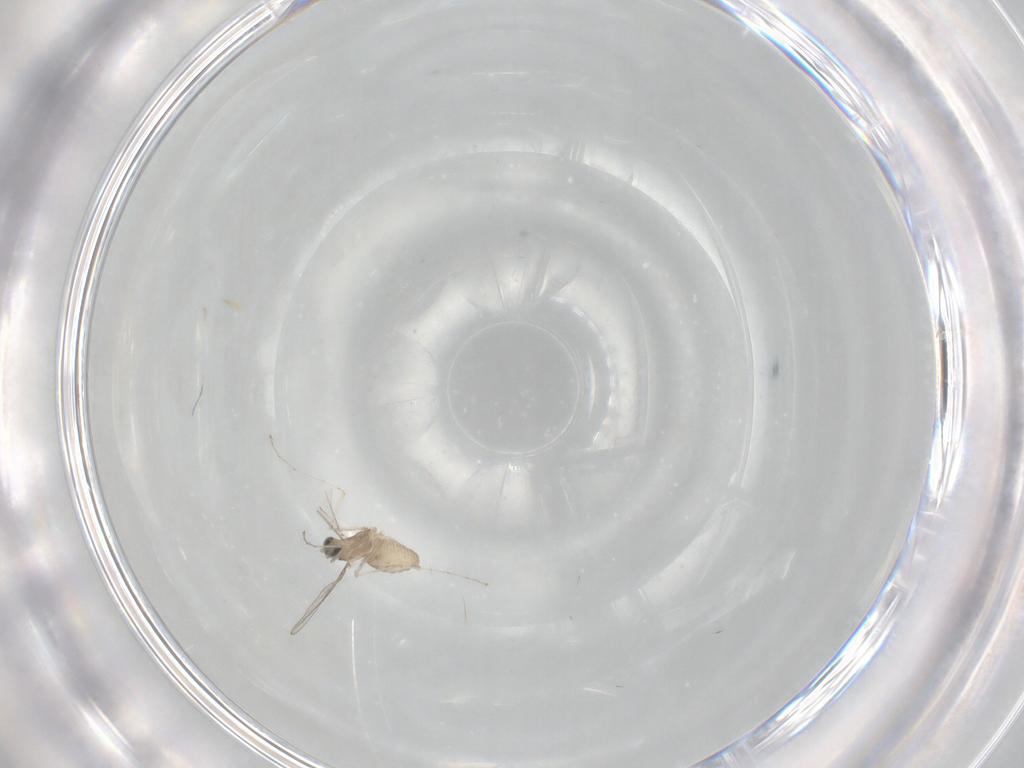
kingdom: Animalia
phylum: Arthropoda
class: Insecta
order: Diptera
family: Cecidomyiidae
